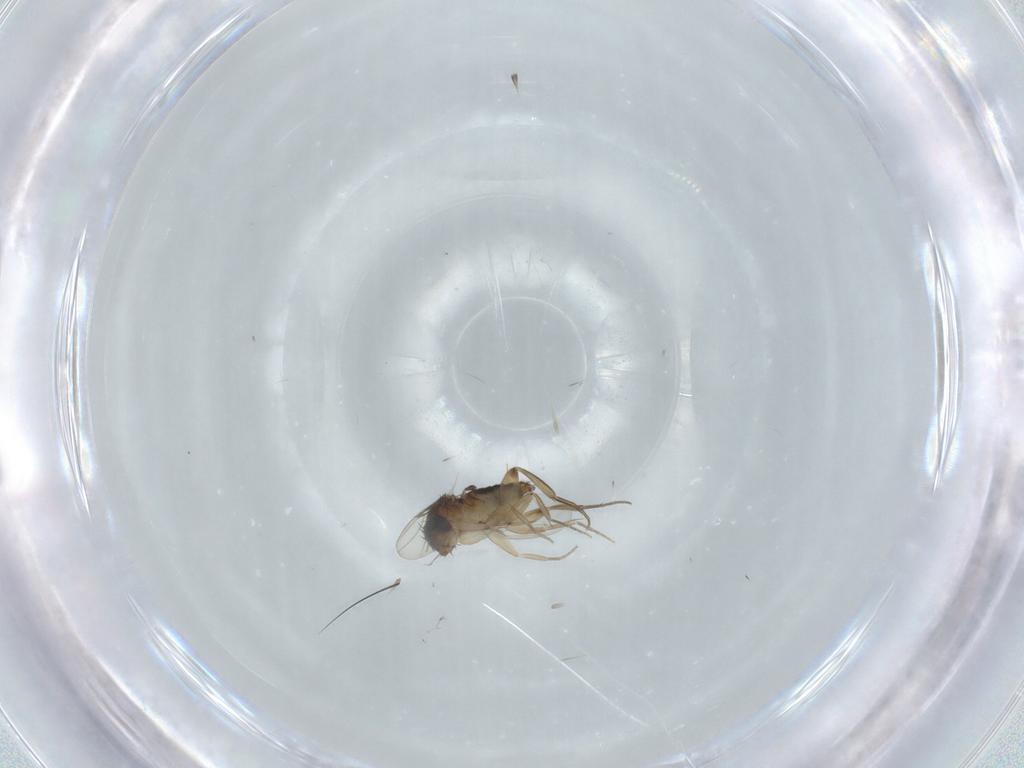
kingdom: Animalia
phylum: Arthropoda
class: Insecta
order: Diptera
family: Phoridae
